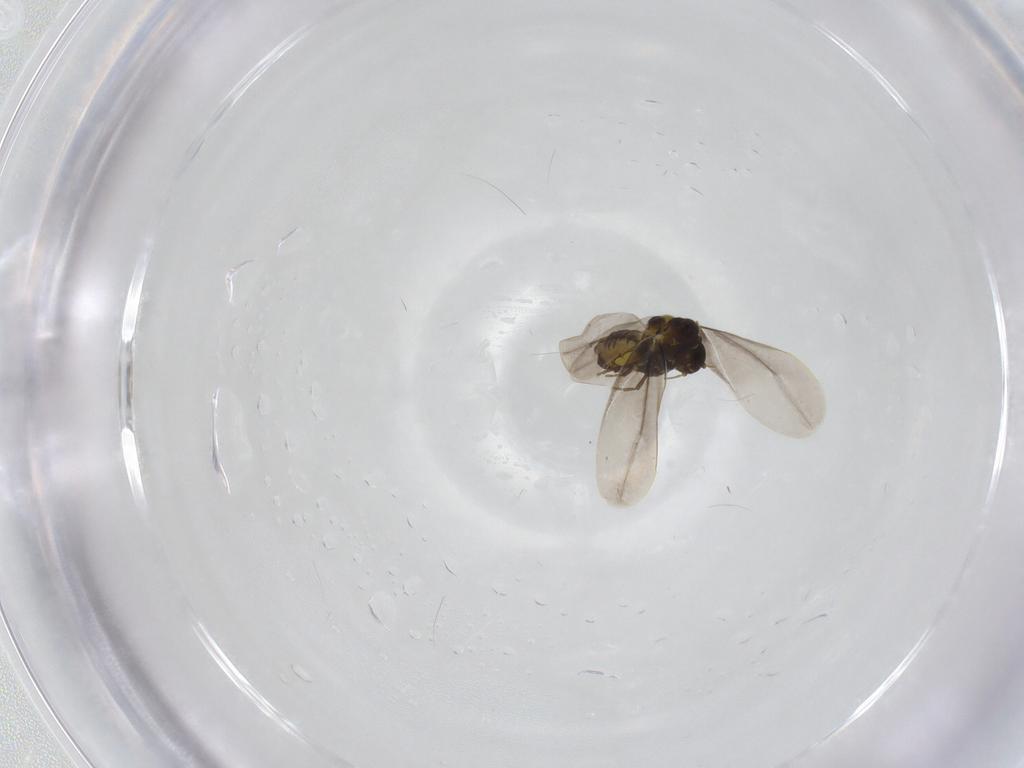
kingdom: Animalia
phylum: Arthropoda
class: Insecta
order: Hemiptera
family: Aleyrodidae
